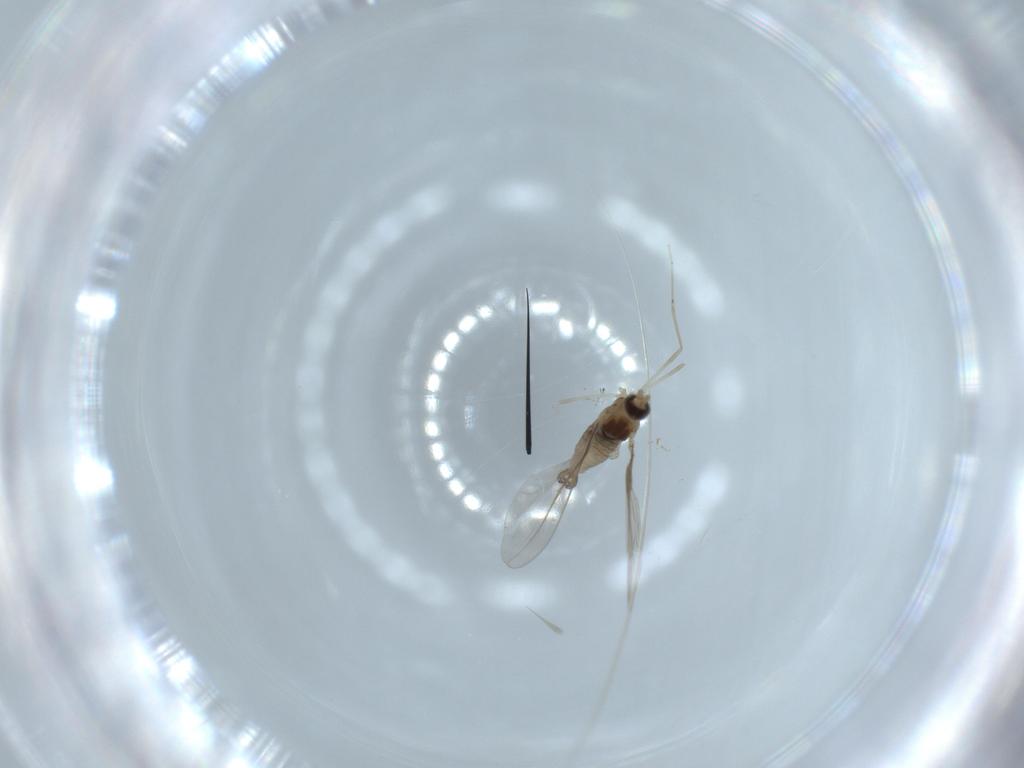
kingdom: Animalia
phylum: Arthropoda
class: Insecta
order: Diptera
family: Cecidomyiidae
